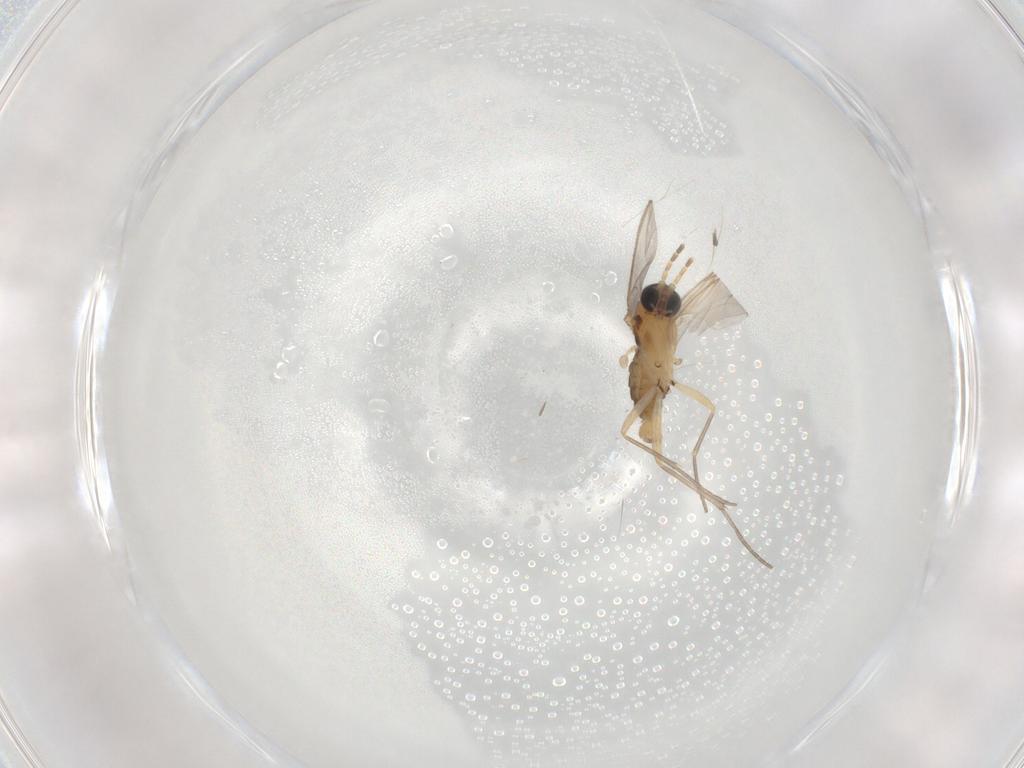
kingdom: Animalia
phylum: Arthropoda
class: Insecta
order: Diptera
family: Sciaridae
